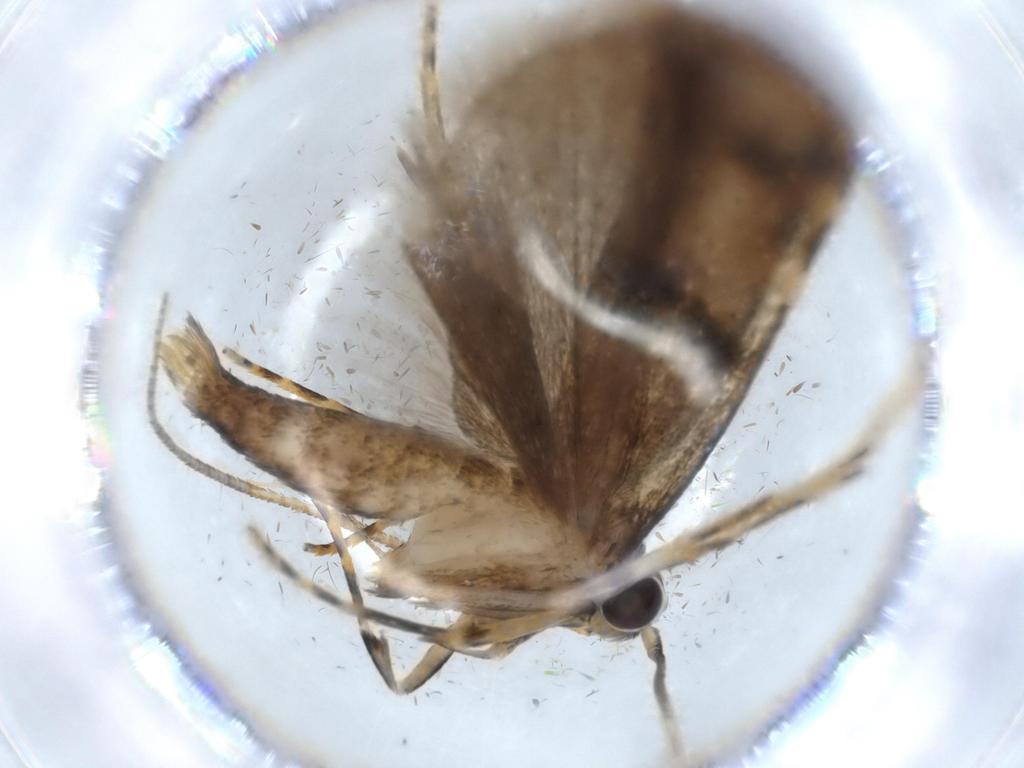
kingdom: Animalia
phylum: Arthropoda
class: Insecta
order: Lepidoptera
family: Autostichidae
